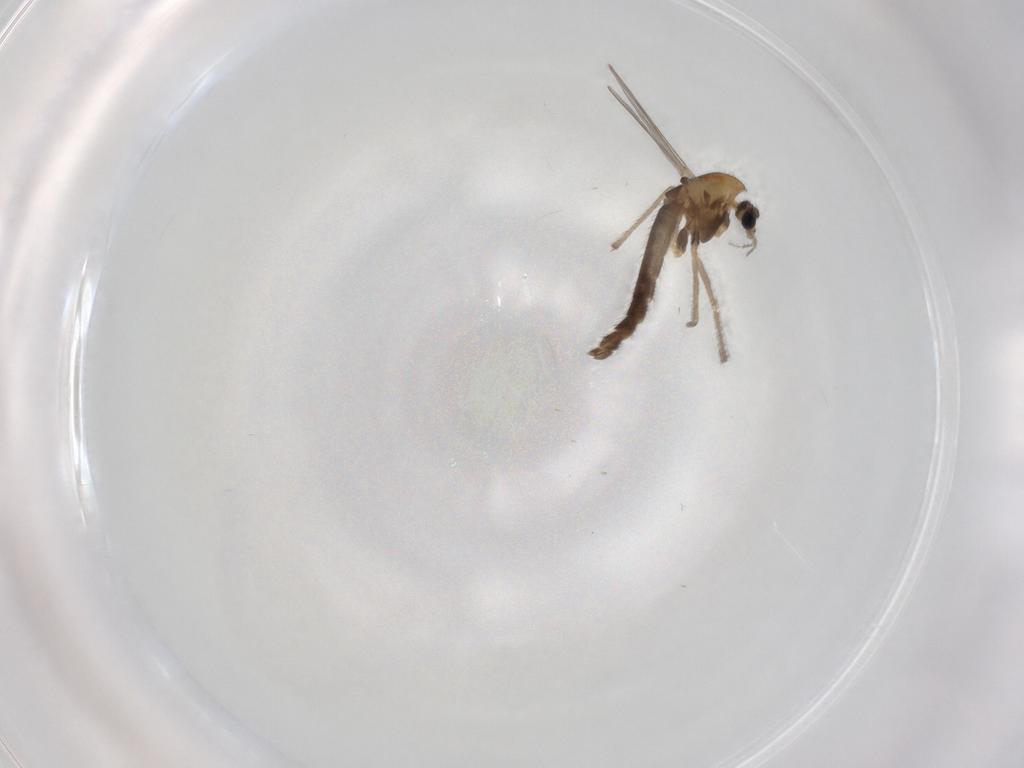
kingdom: Animalia
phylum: Arthropoda
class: Insecta
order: Diptera
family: Chironomidae
